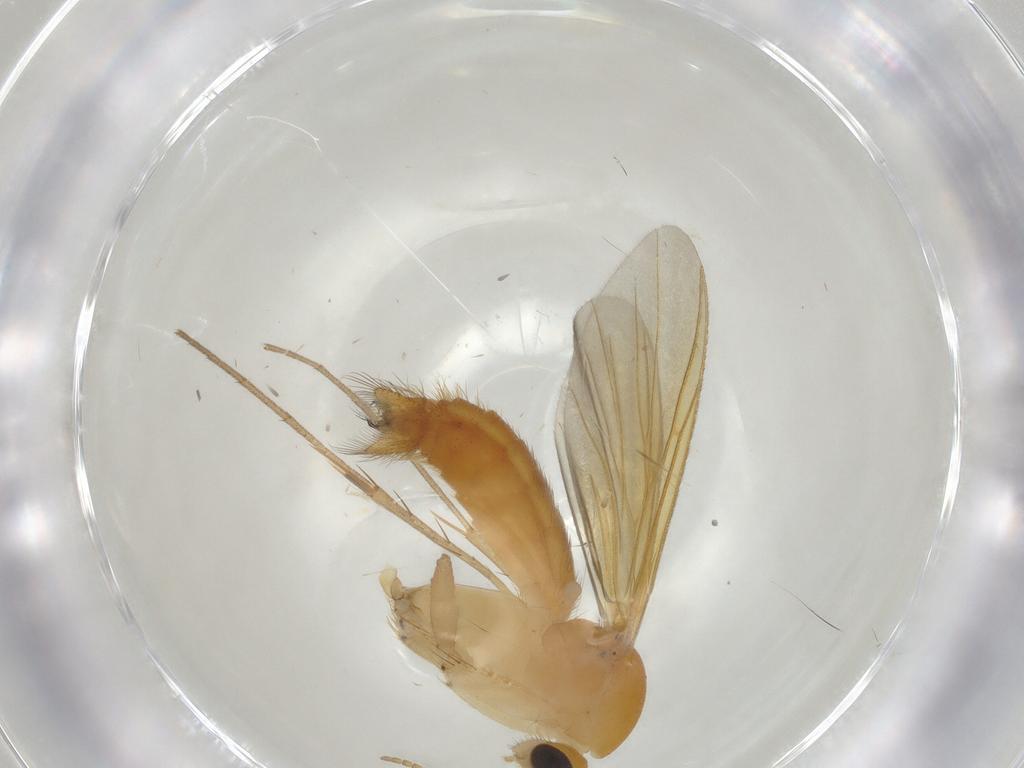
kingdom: Animalia
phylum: Arthropoda
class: Insecta
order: Diptera
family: Mycetophilidae
